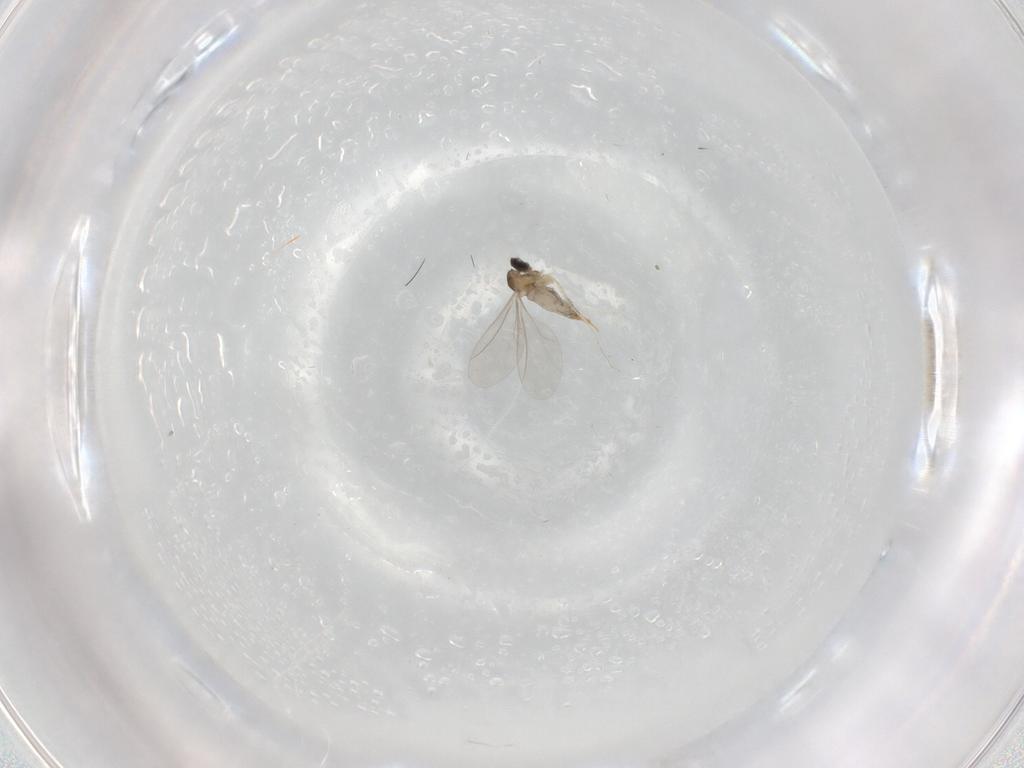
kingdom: Animalia
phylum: Arthropoda
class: Insecta
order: Diptera
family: Cecidomyiidae
